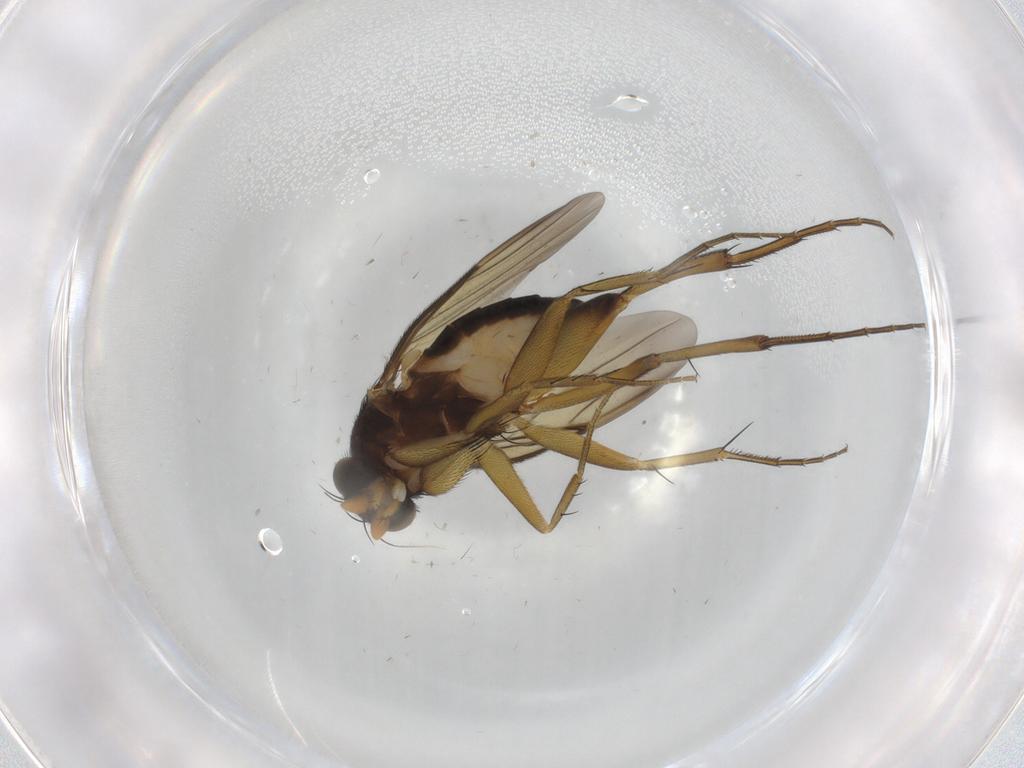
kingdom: Animalia
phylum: Arthropoda
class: Insecta
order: Diptera
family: Phoridae
